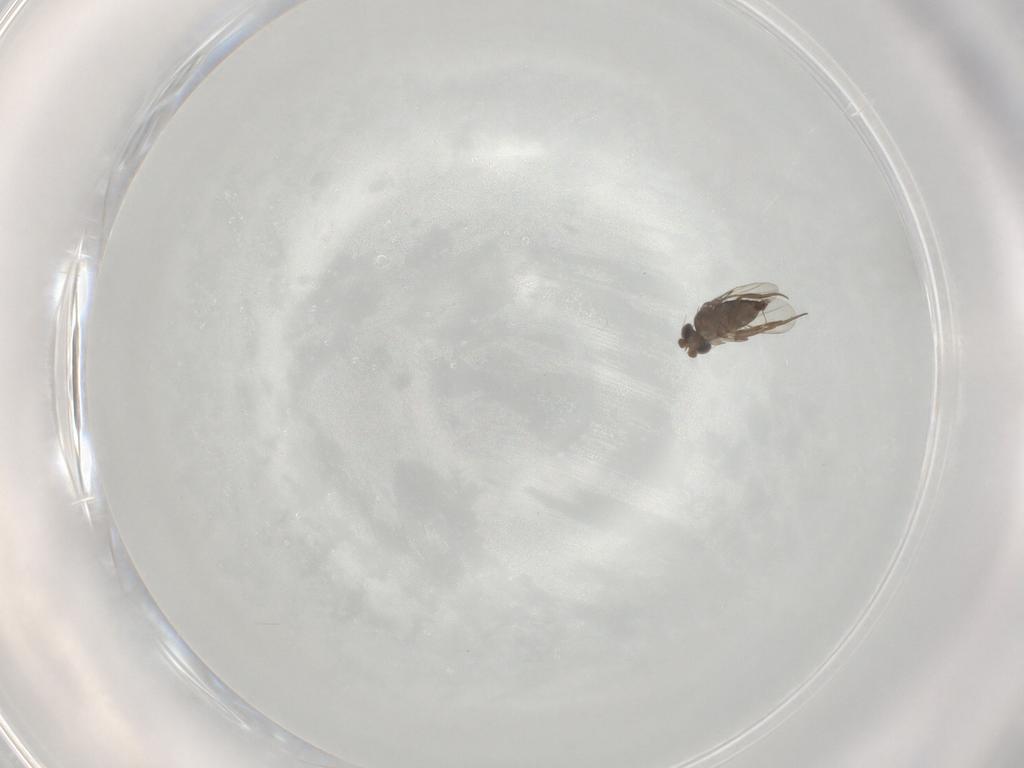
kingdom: Animalia
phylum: Arthropoda
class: Insecta
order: Diptera
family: Phoridae
